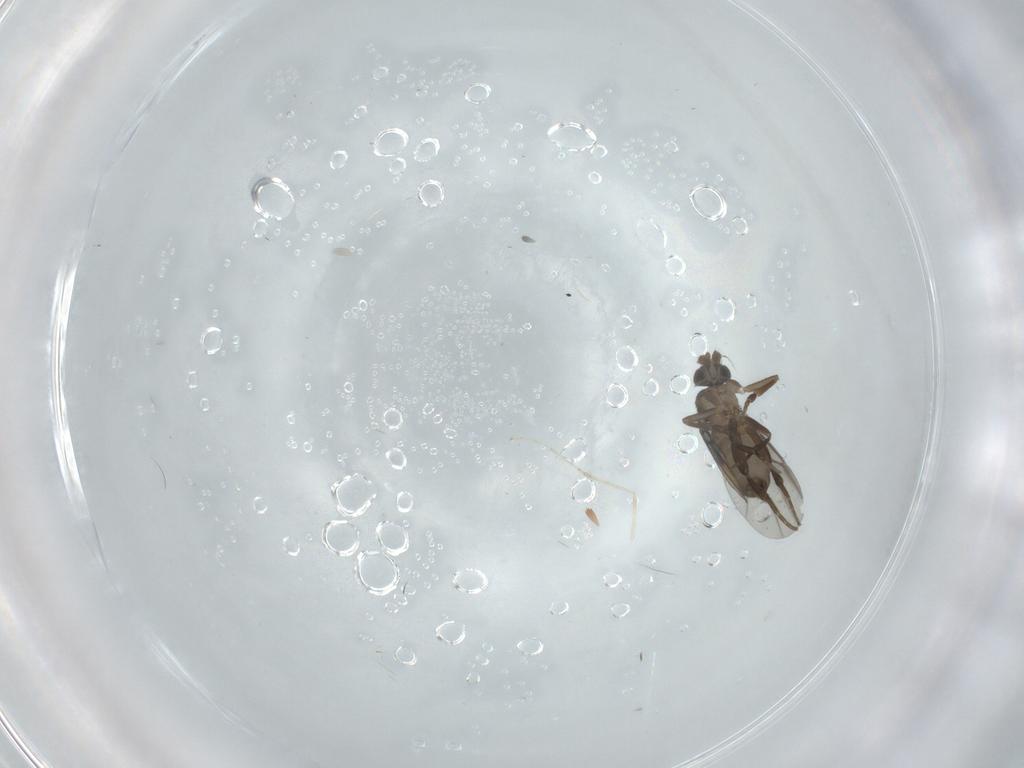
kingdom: Animalia
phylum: Arthropoda
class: Insecta
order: Diptera
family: Phoridae
